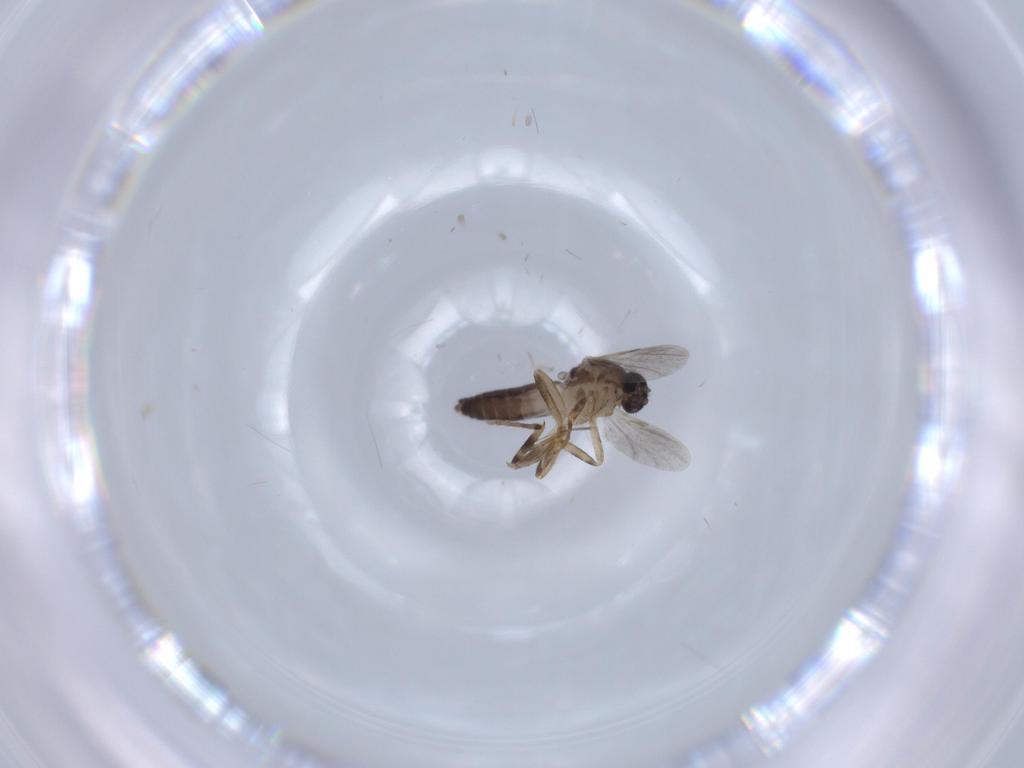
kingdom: Animalia
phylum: Arthropoda
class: Insecta
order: Diptera
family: Ceratopogonidae
